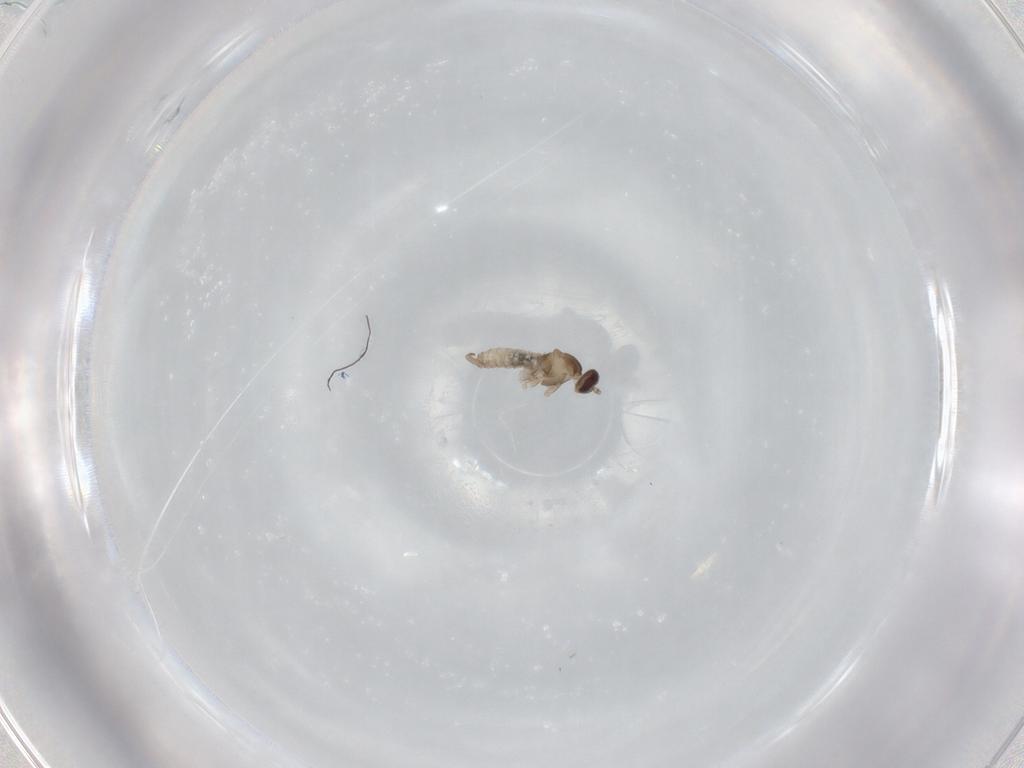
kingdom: Animalia
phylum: Arthropoda
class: Insecta
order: Diptera
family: Cecidomyiidae
